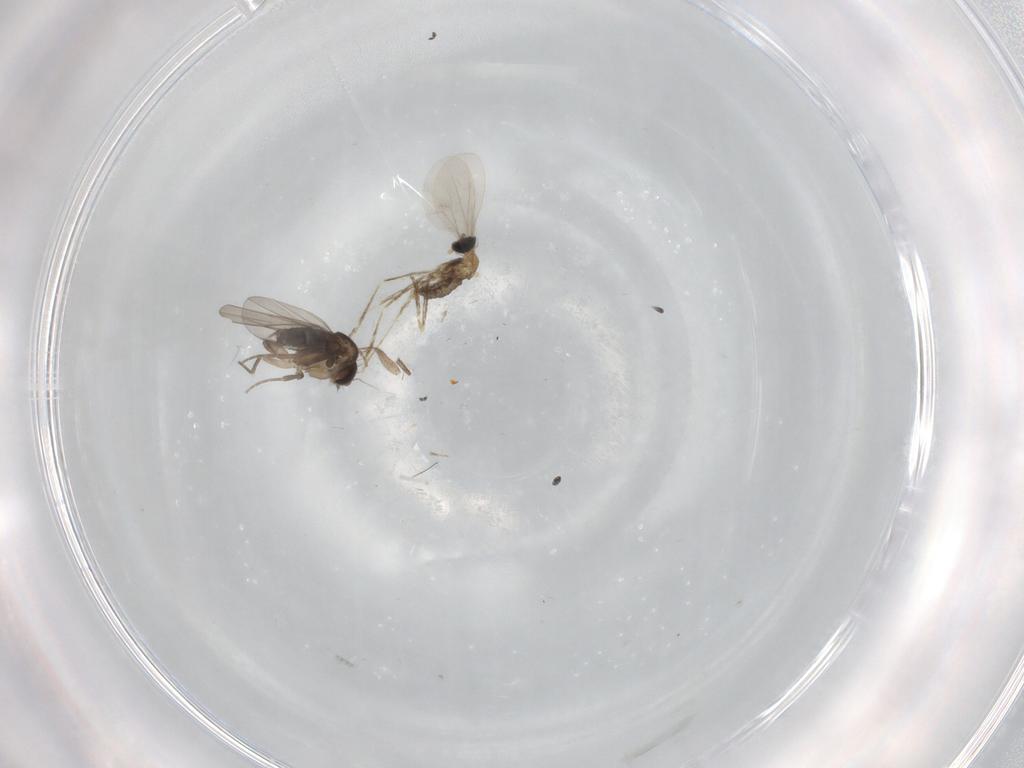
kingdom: Animalia
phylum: Arthropoda
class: Insecta
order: Diptera
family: Cecidomyiidae
